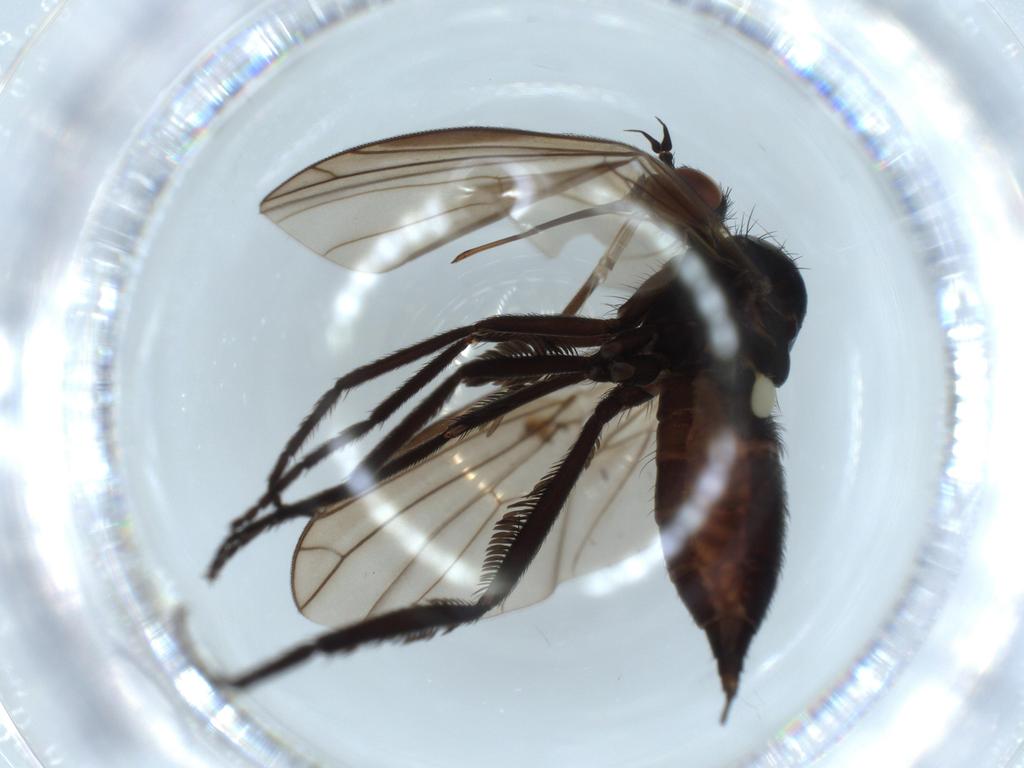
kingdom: Animalia
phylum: Arthropoda
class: Insecta
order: Diptera
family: Empididae
